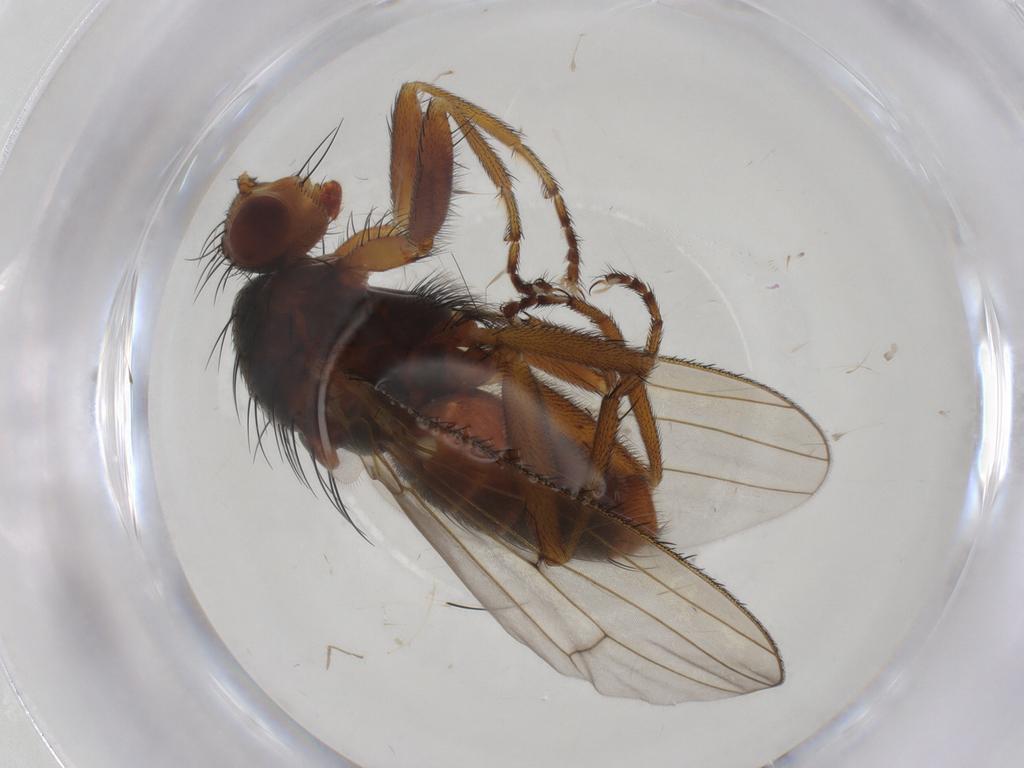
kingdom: Animalia
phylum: Arthropoda
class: Insecta
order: Diptera
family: Heleomyzidae
